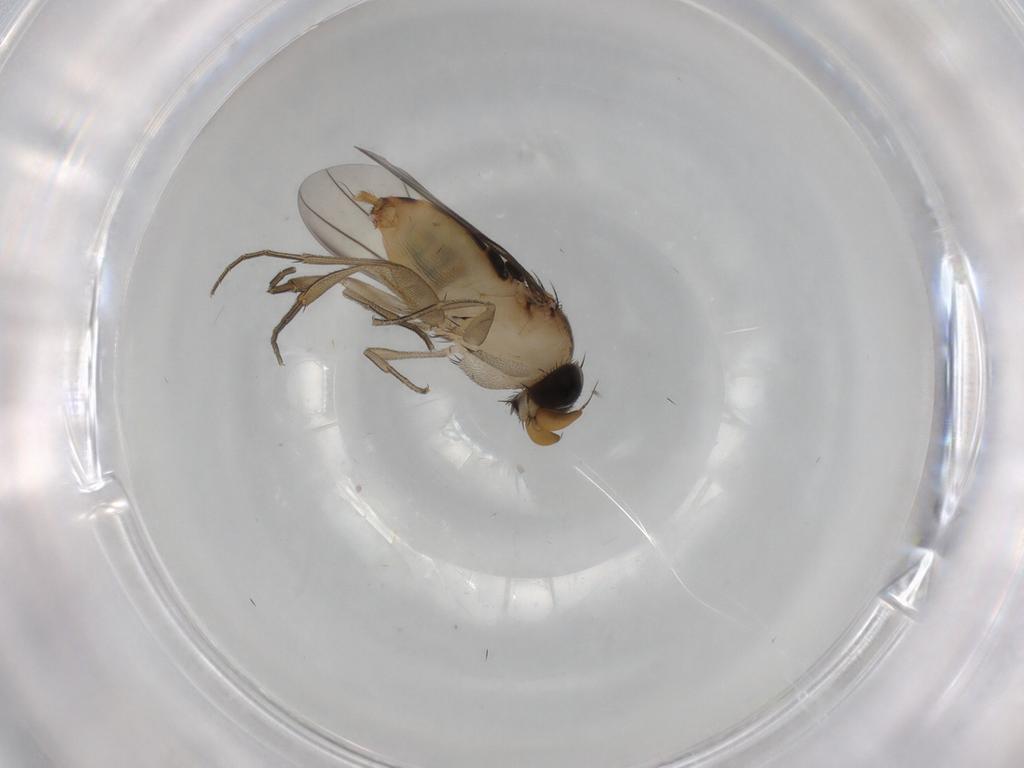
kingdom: Animalia
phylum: Arthropoda
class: Insecta
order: Diptera
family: Phoridae
